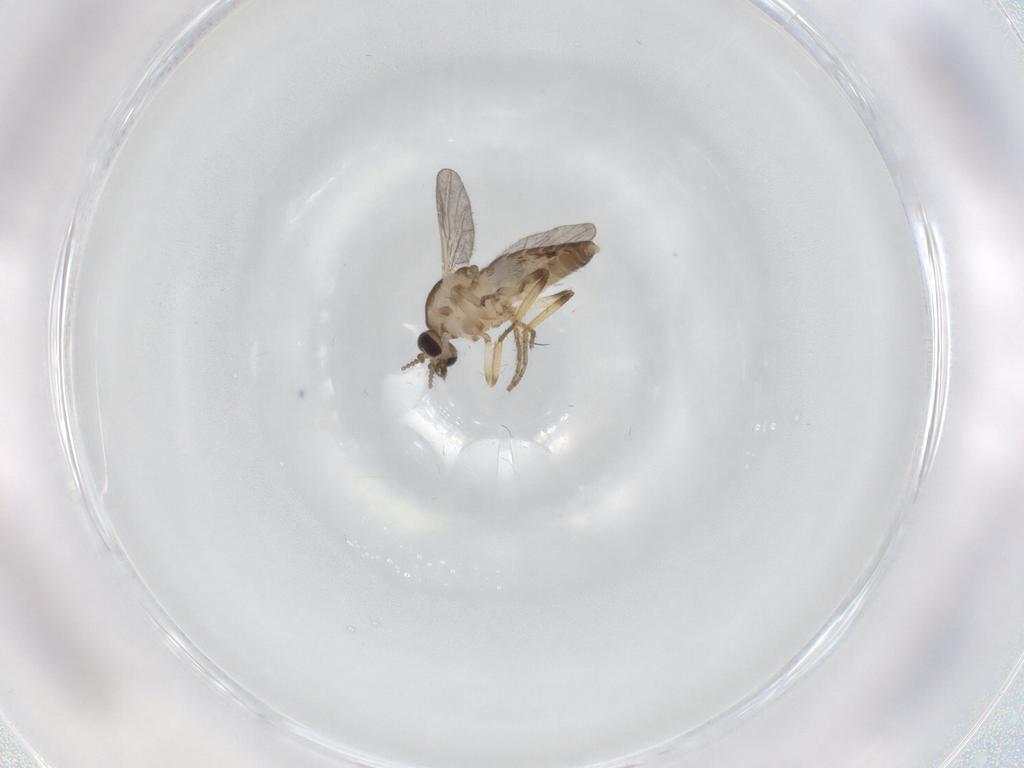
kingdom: Animalia
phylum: Arthropoda
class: Insecta
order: Diptera
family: Ceratopogonidae
